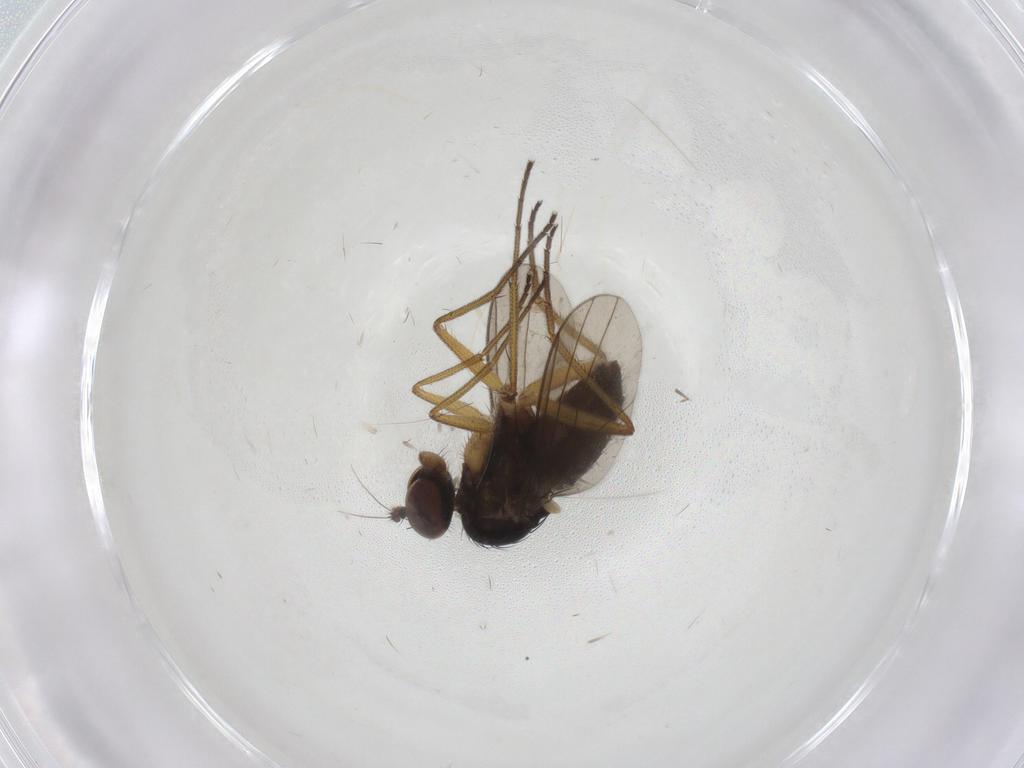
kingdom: Animalia
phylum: Arthropoda
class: Insecta
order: Diptera
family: Dolichopodidae
